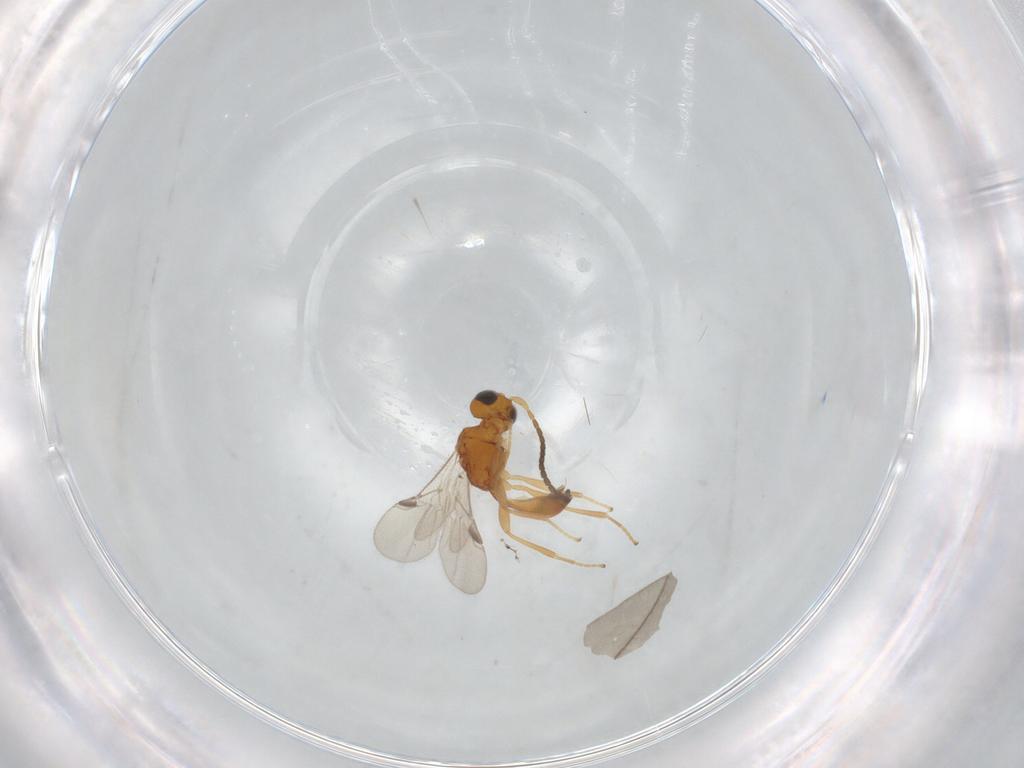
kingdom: Animalia
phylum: Arthropoda
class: Insecta
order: Hymenoptera
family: Braconidae
